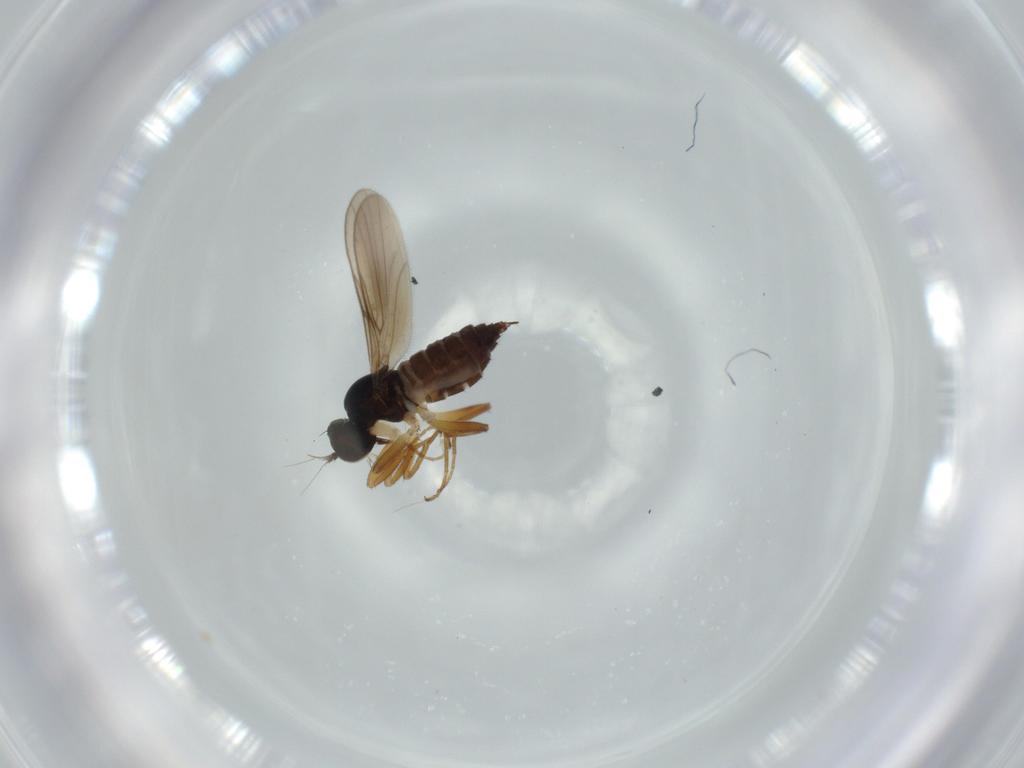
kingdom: Animalia
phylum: Arthropoda
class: Insecta
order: Diptera
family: Hybotidae
